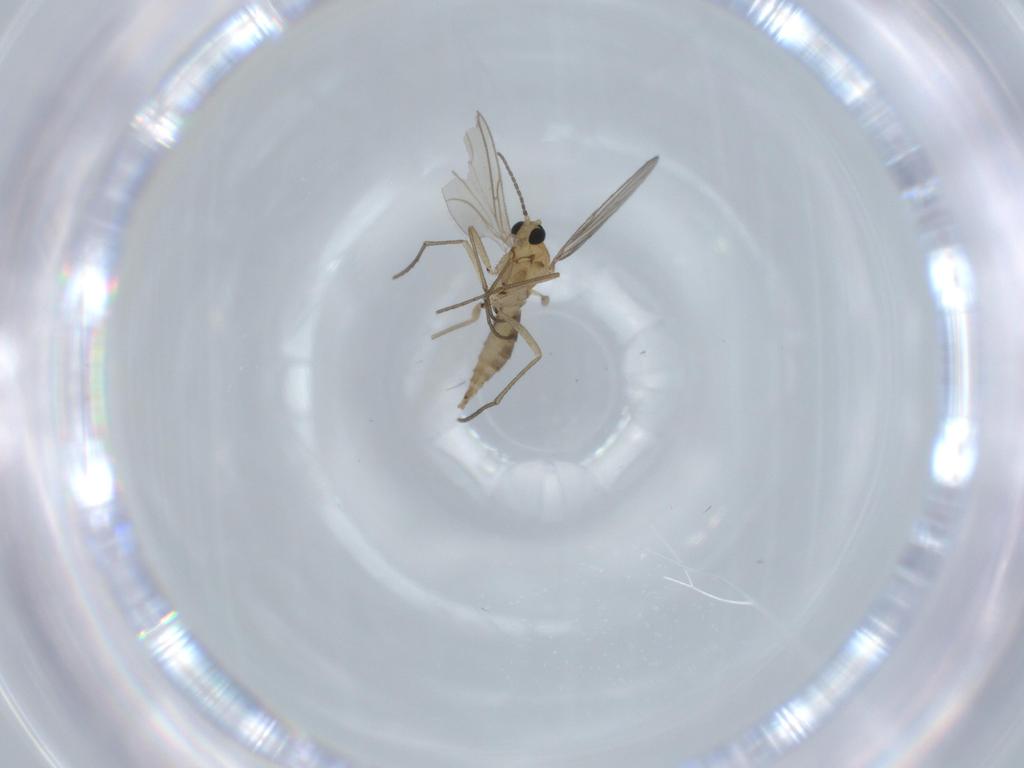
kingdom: Animalia
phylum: Arthropoda
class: Insecta
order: Diptera
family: Sciaridae
